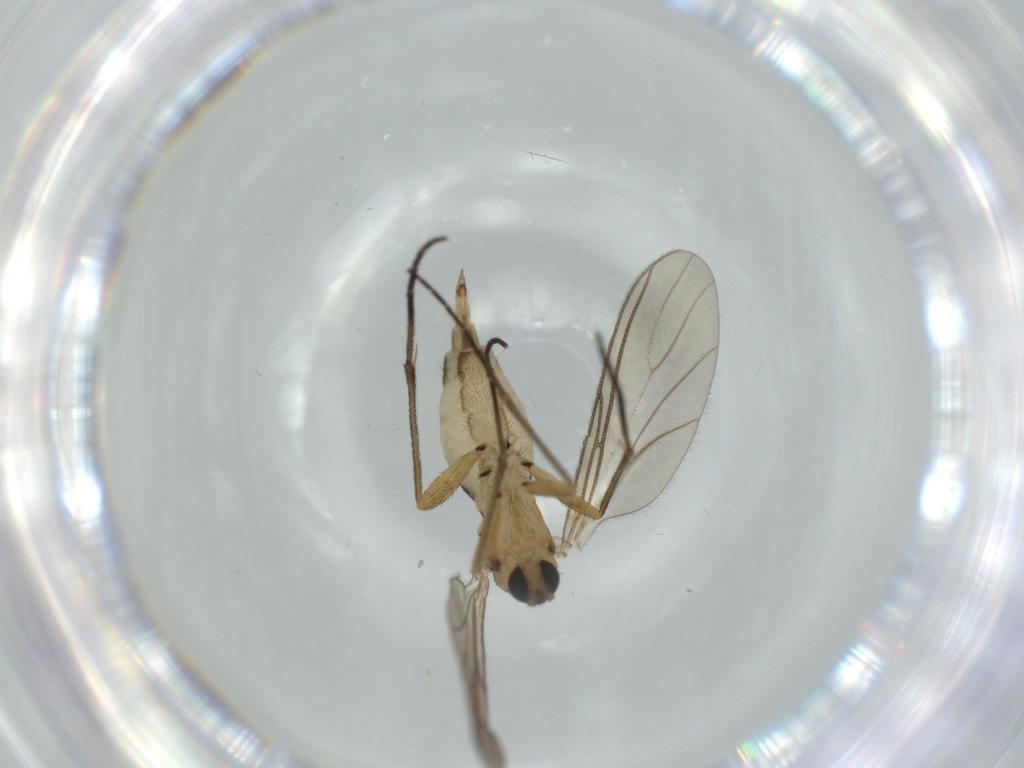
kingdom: Animalia
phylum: Arthropoda
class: Insecta
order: Diptera
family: Sciaridae
